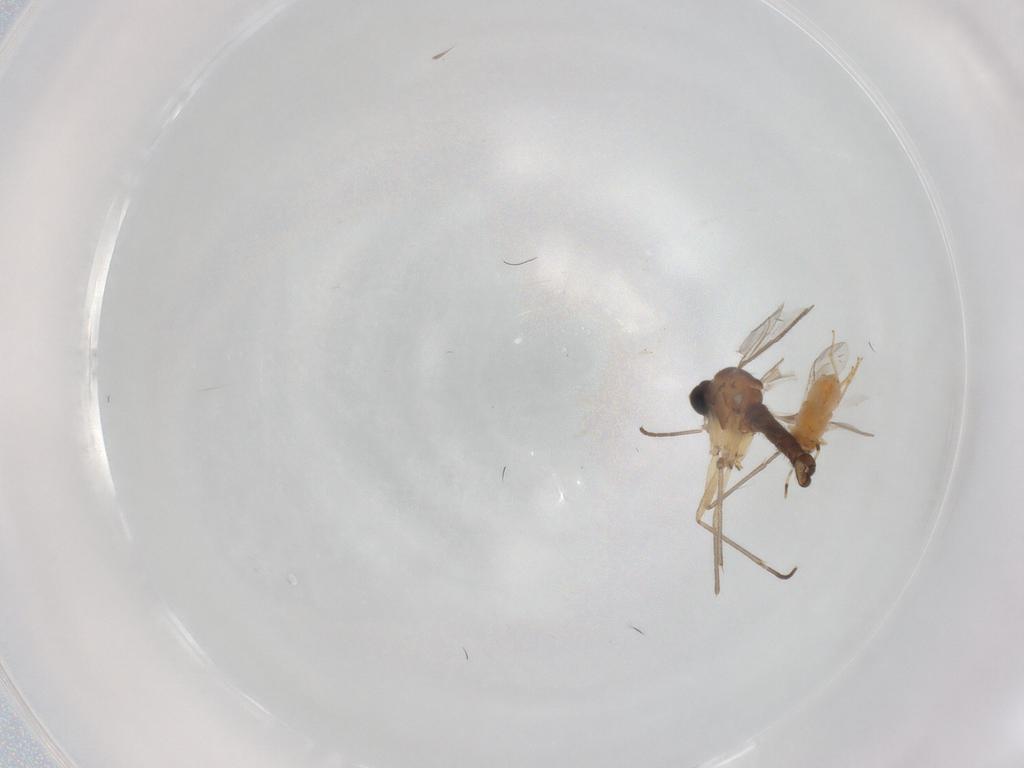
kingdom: Animalia
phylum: Arthropoda
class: Insecta
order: Hymenoptera
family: Encyrtidae
